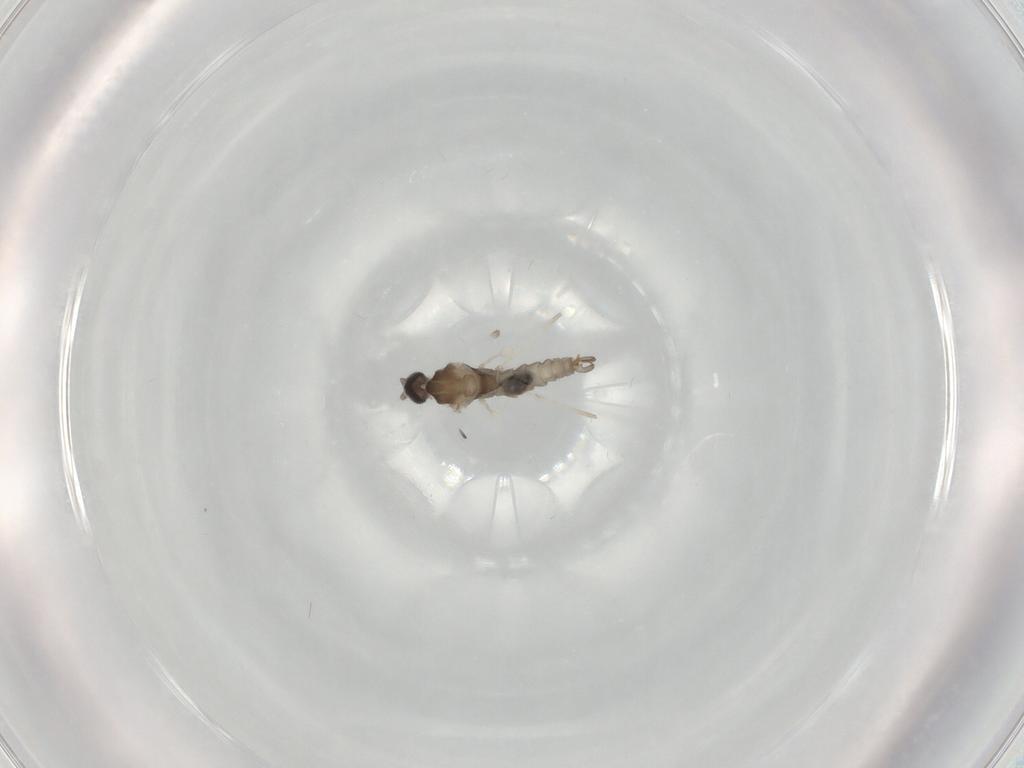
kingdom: Animalia
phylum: Arthropoda
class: Insecta
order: Diptera
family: Cecidomyiidae
